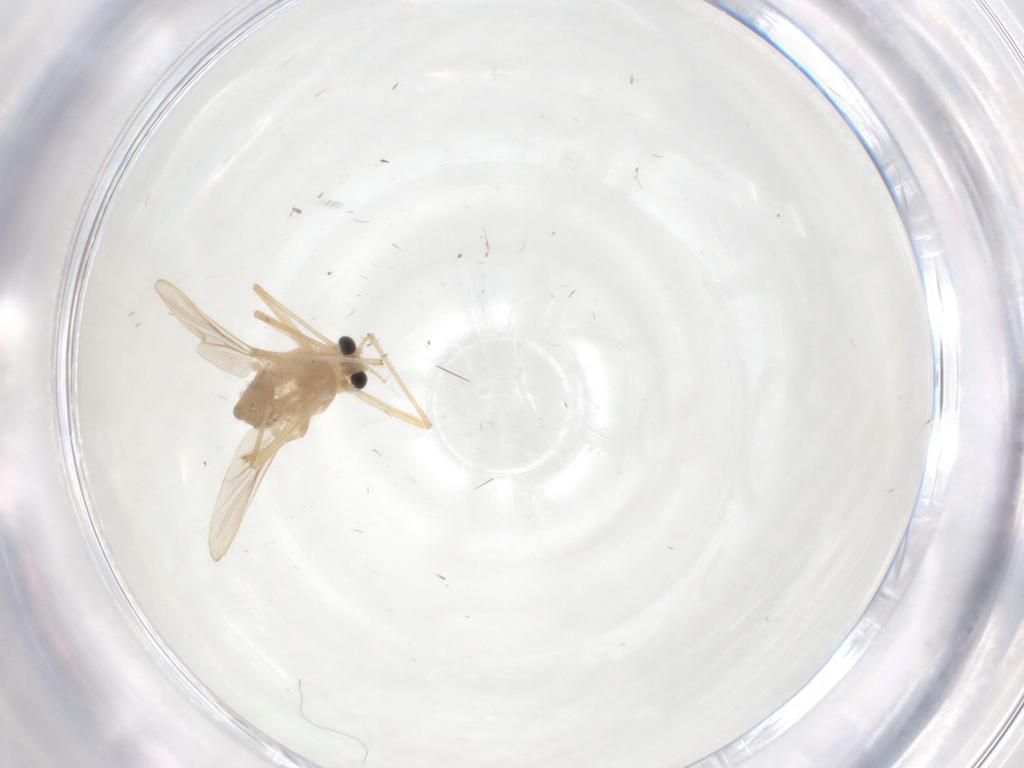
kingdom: Animalia
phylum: Arthropoda
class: Insecta
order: Diptera
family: Chironomidae
